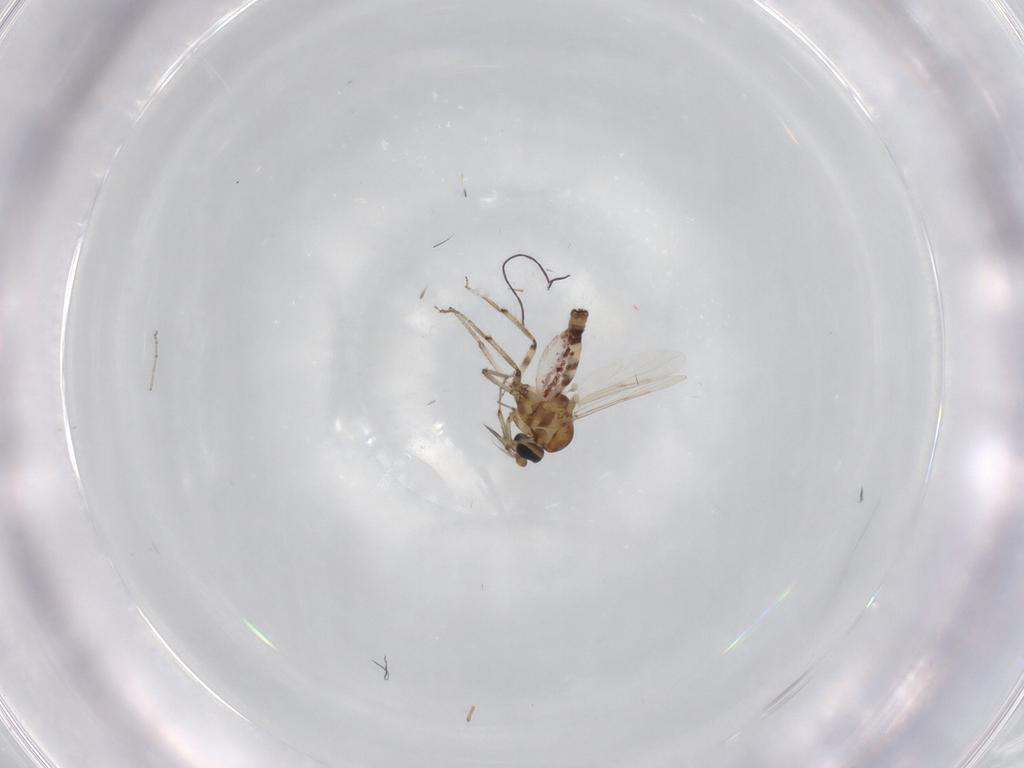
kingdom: Animalia
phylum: Arthropoda
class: Insecta
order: Diptera
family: Ceratopogonidae
